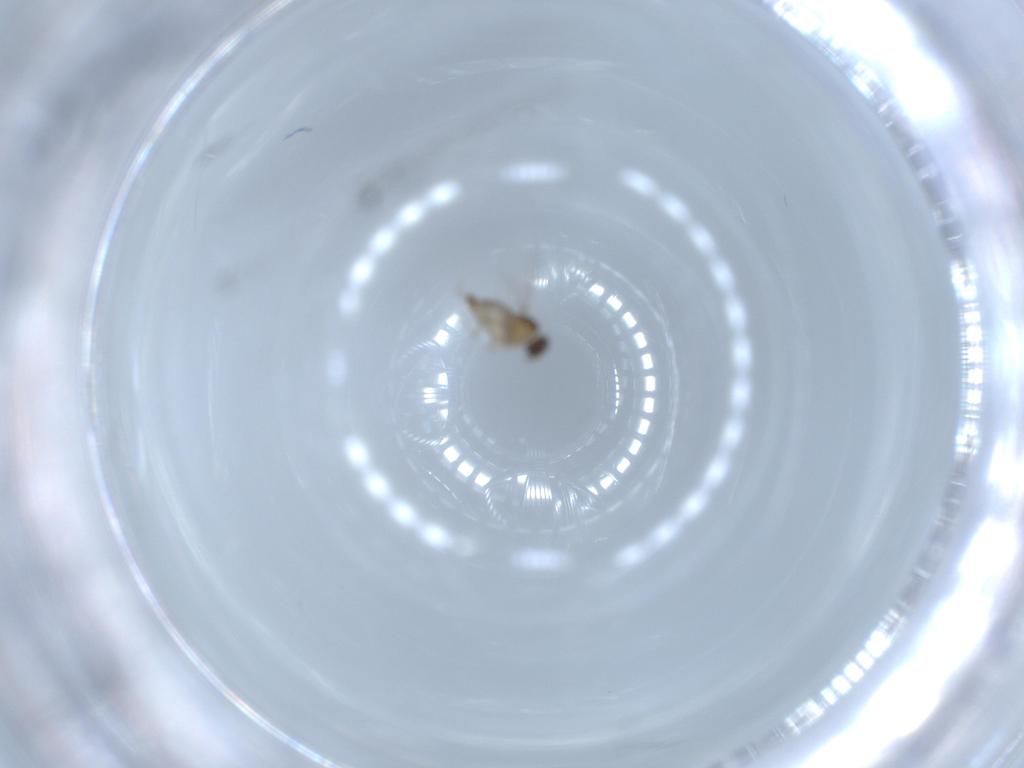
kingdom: Animalia
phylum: Arthropoda
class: Insecta
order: Diptera
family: Cecidomyiidae
